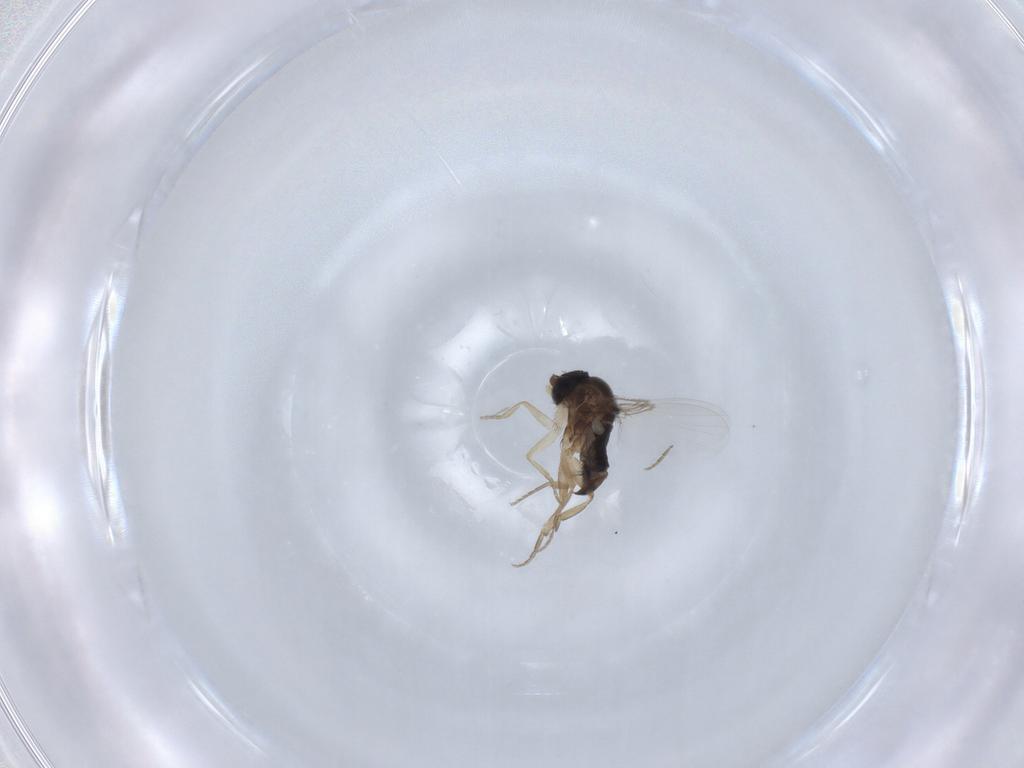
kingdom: Animalia
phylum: Arthropoda
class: Insecta
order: Diptera
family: Phoridae
